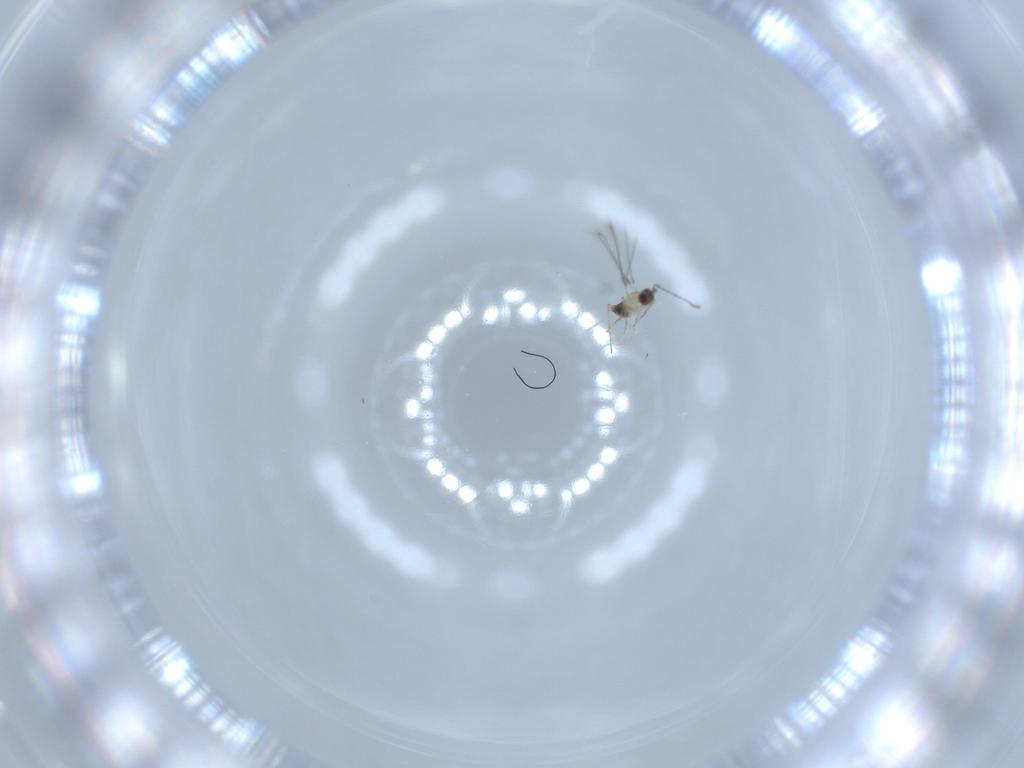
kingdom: Animalia
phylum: Arthropoda
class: Insecta
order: Hymenoptera
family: Mymaridae
